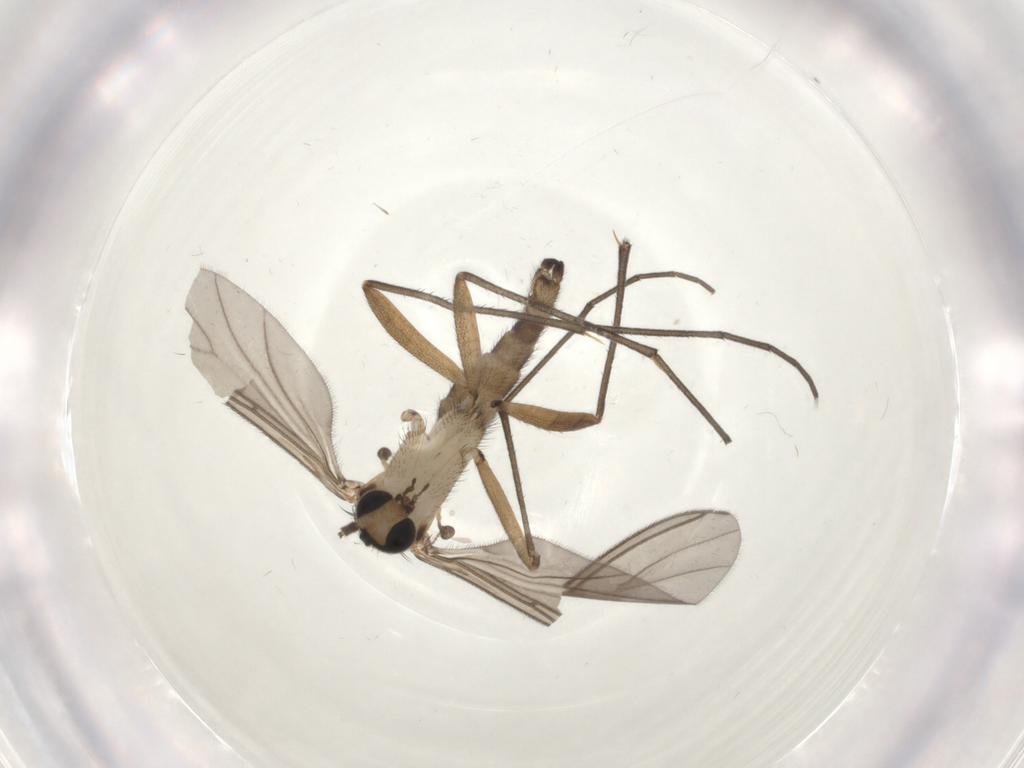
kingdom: Animalia
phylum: Arthropoda
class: Insecta
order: Diptera
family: Sciaridae
